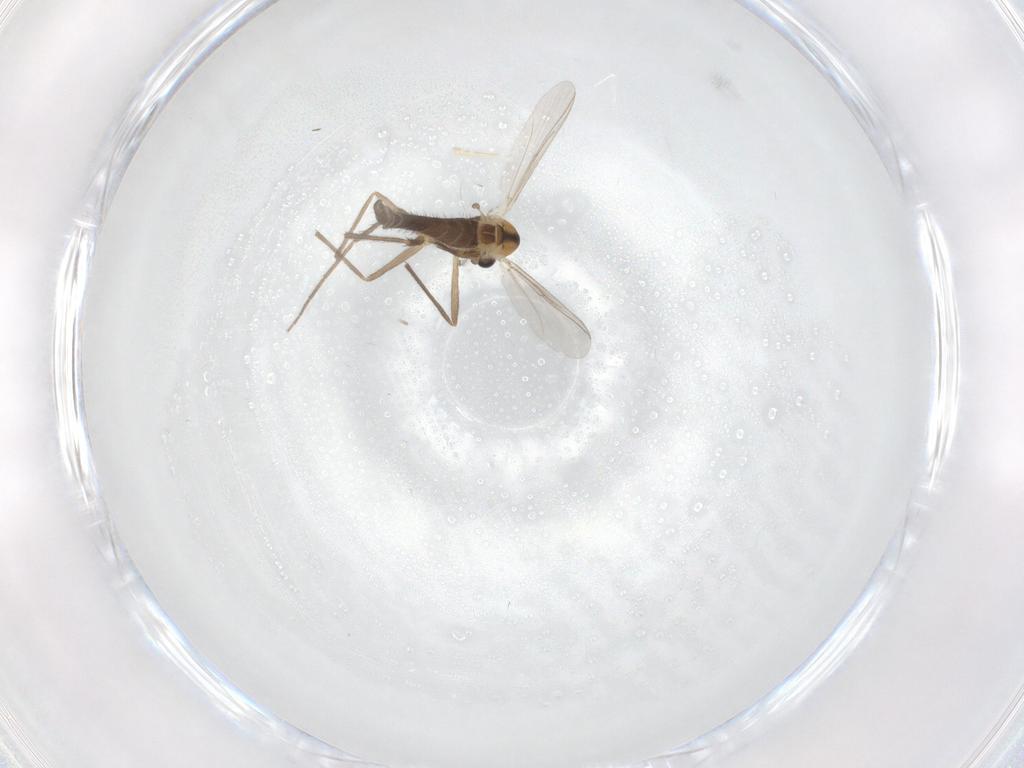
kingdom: Animalia
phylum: Arthropoda
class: Insecta
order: Diptera
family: Chironomidae
